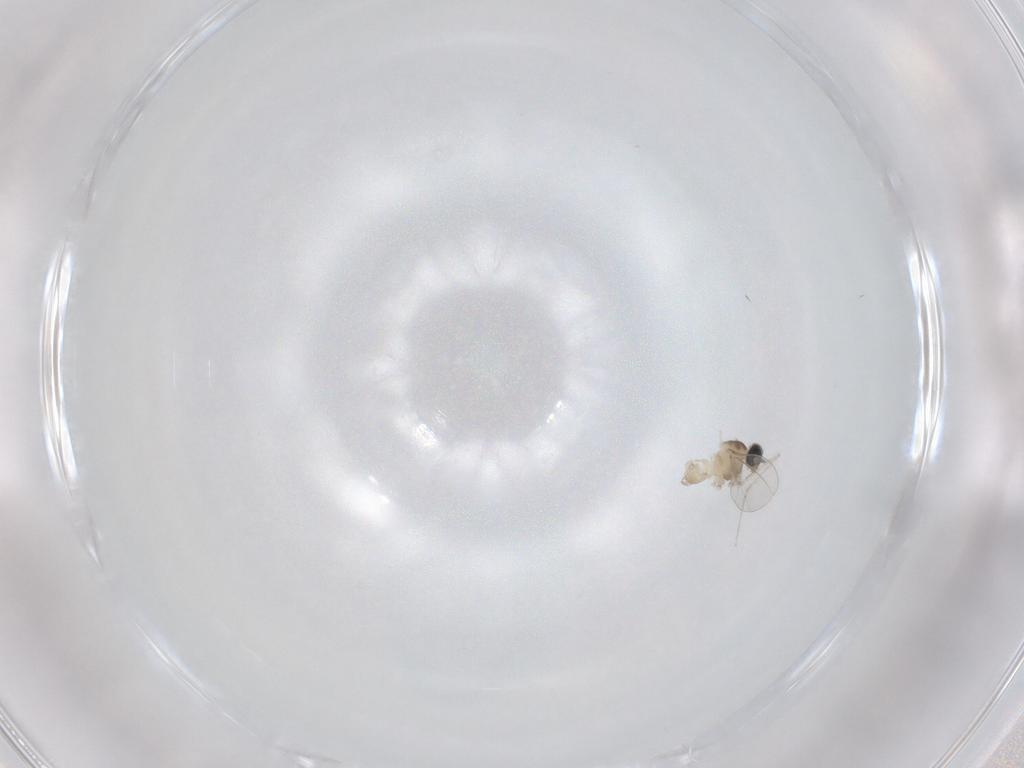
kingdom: Animalia
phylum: Arthropoda
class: Insecta
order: Diptera
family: Cecidomyiidae
